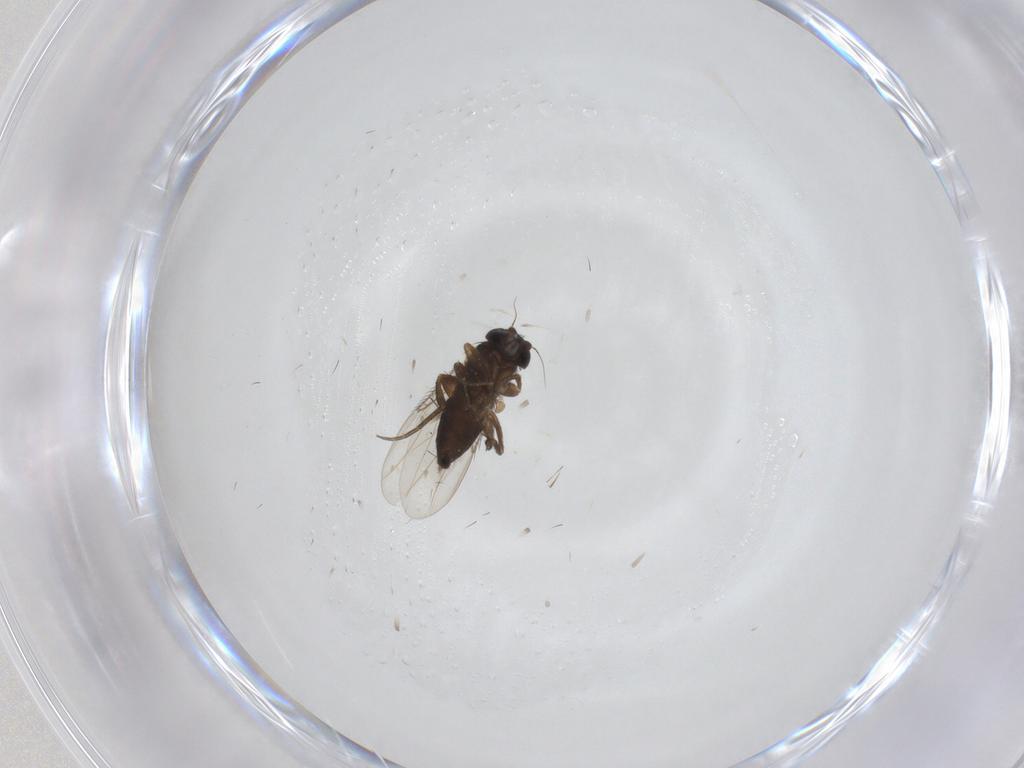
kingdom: Animalia
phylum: Arthropoda
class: Insecta
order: Diptera
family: Phoridae
